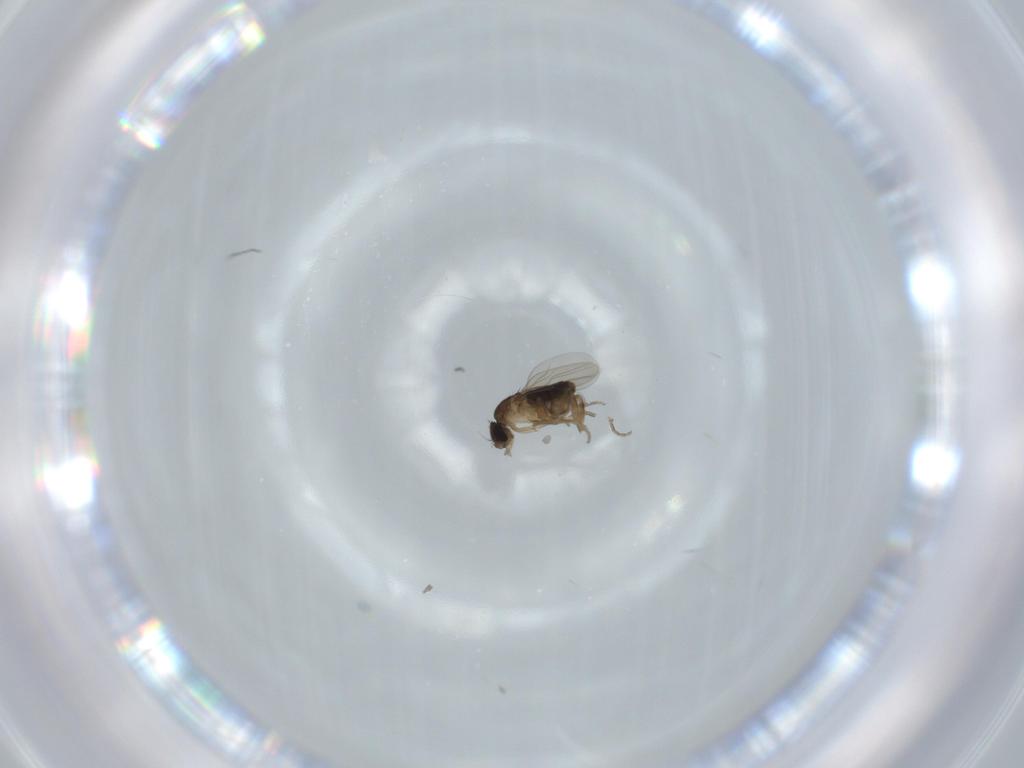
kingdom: Animalia
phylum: Arthropoda
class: Insecta
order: Diptera
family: Phoridae
